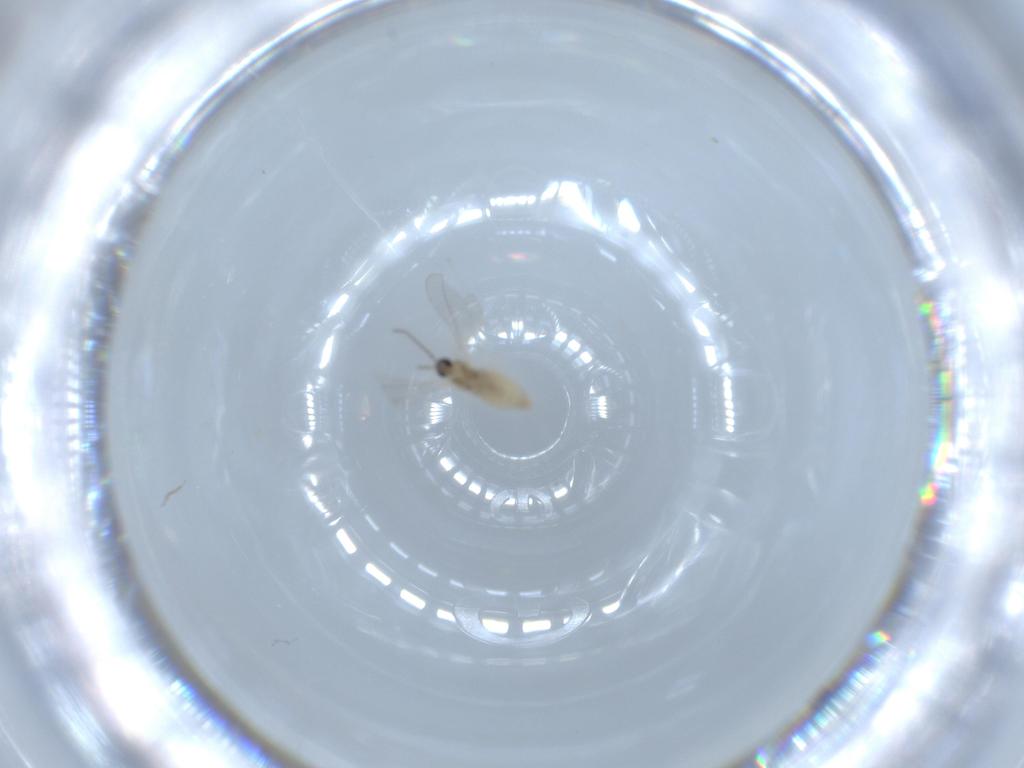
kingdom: Animalia
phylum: Arthropoda
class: Insecta
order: Diptera
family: Cecidomyiidae
